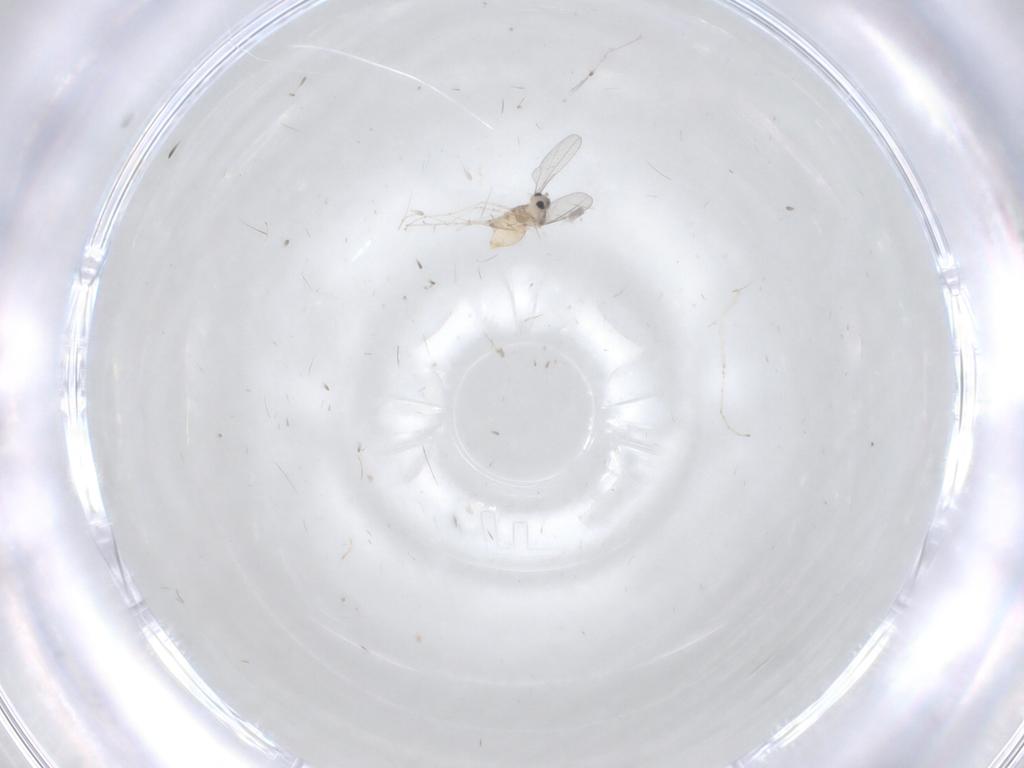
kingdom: Animalia
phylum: Arthropoda
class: Insecta
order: Diptera
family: Cecidomyiidae
